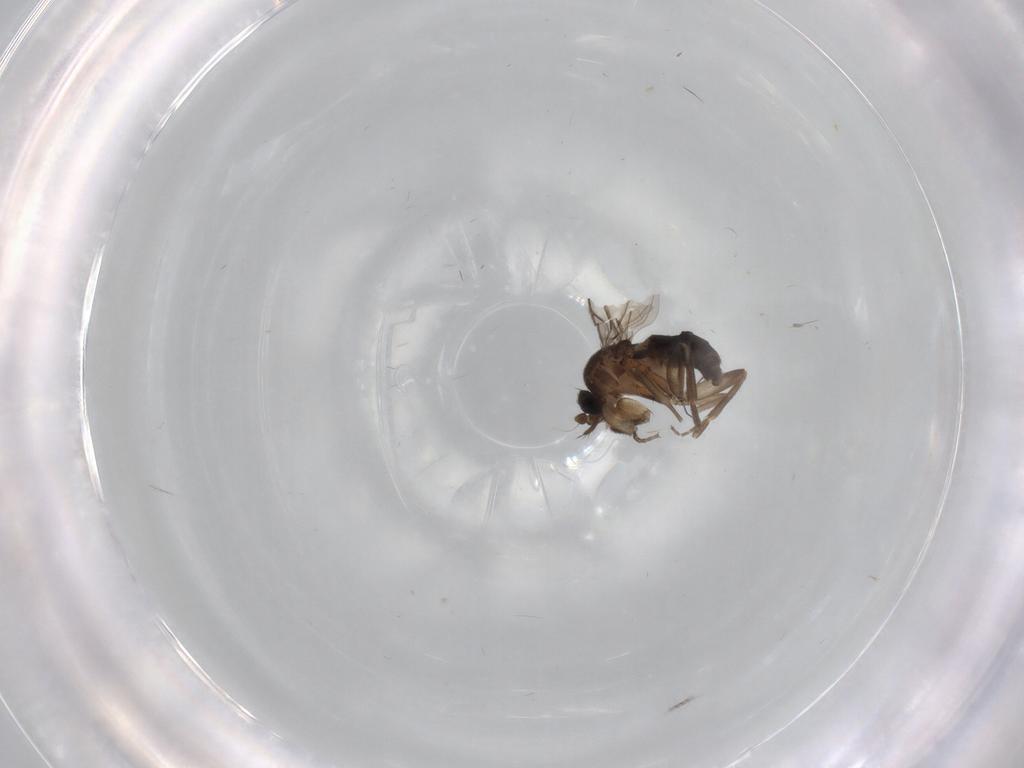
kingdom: Animalia
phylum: Arthropoda
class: Insecta
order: Diptera
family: Phoridae
